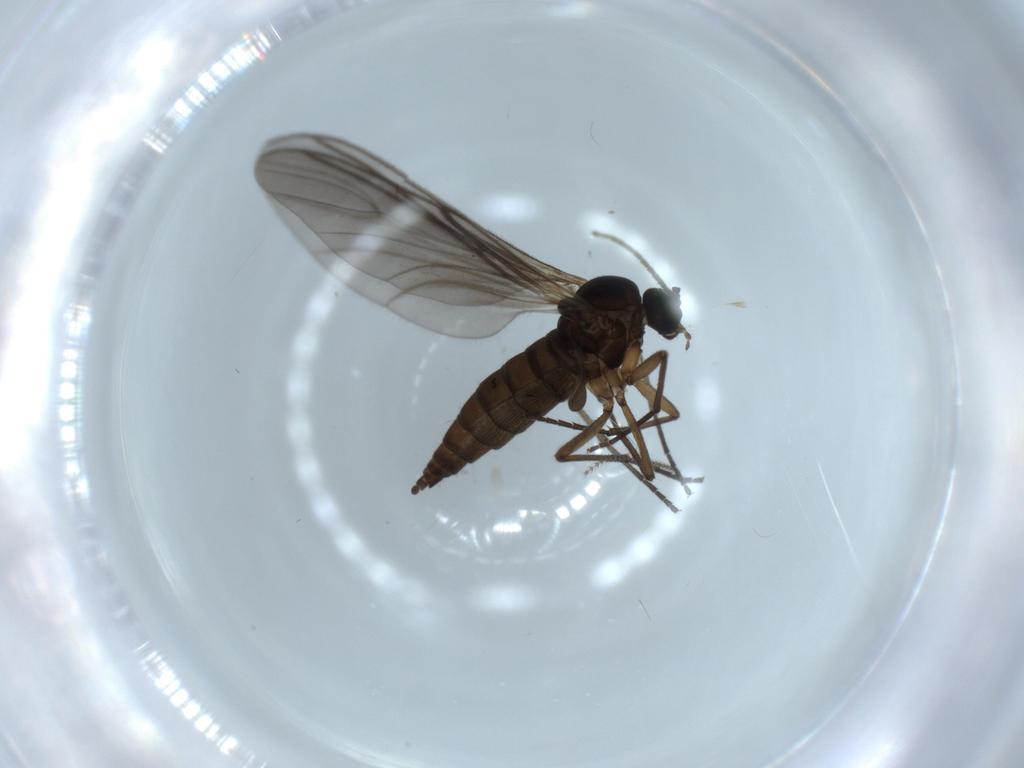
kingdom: Animalia
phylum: Arthropoda
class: Insecta
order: Diptera
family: Sciaridae
